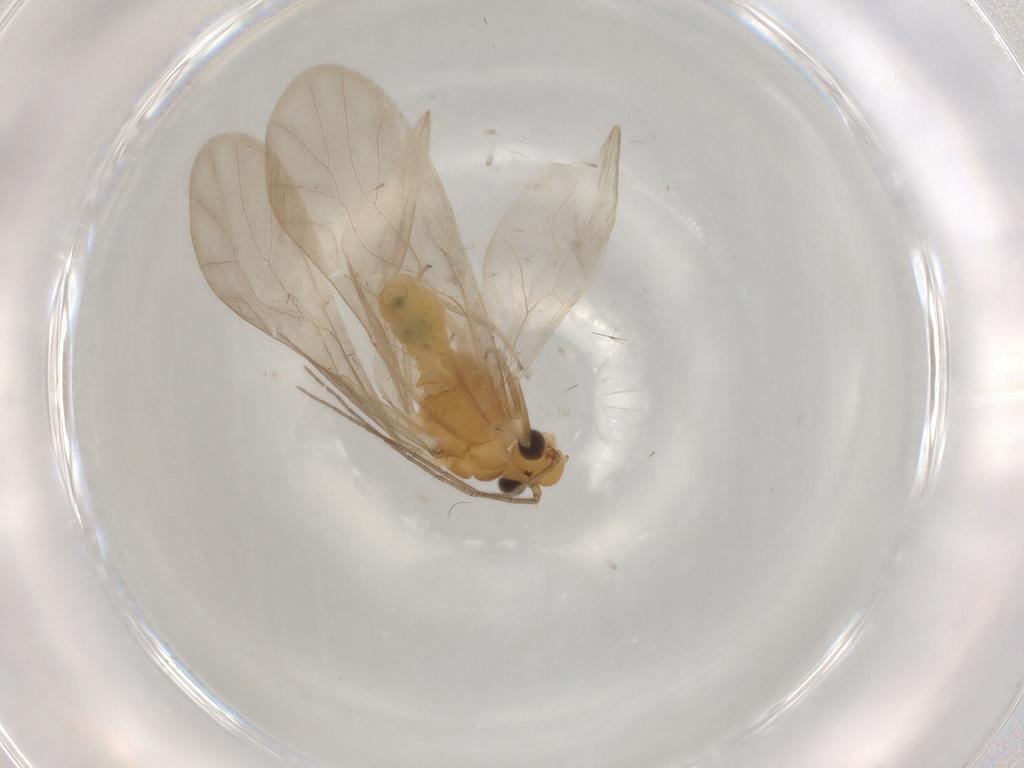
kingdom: Animalia
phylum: Arthropoda
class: Insecta
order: Psocodea
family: Caeciliusidae
